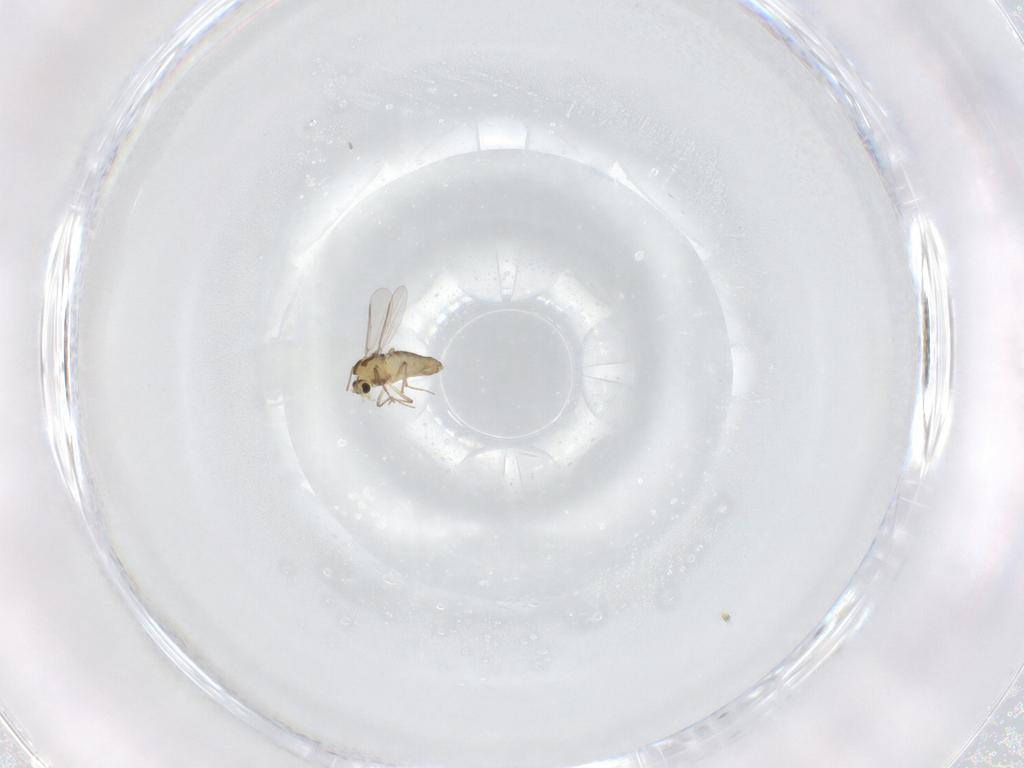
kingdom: Animalia
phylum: Arthropoda
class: Insecta
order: Diptera
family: Chironomidae
